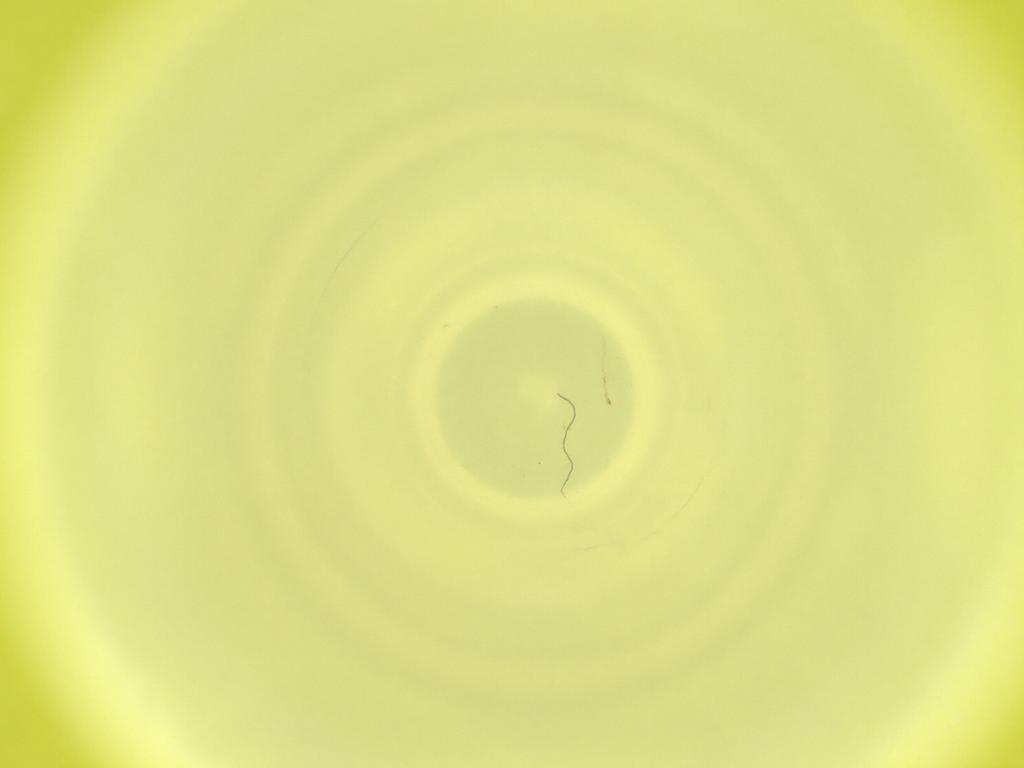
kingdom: Animalia
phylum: Arthropoda
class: Insecta
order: Diptera
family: Cecidomyiidae
